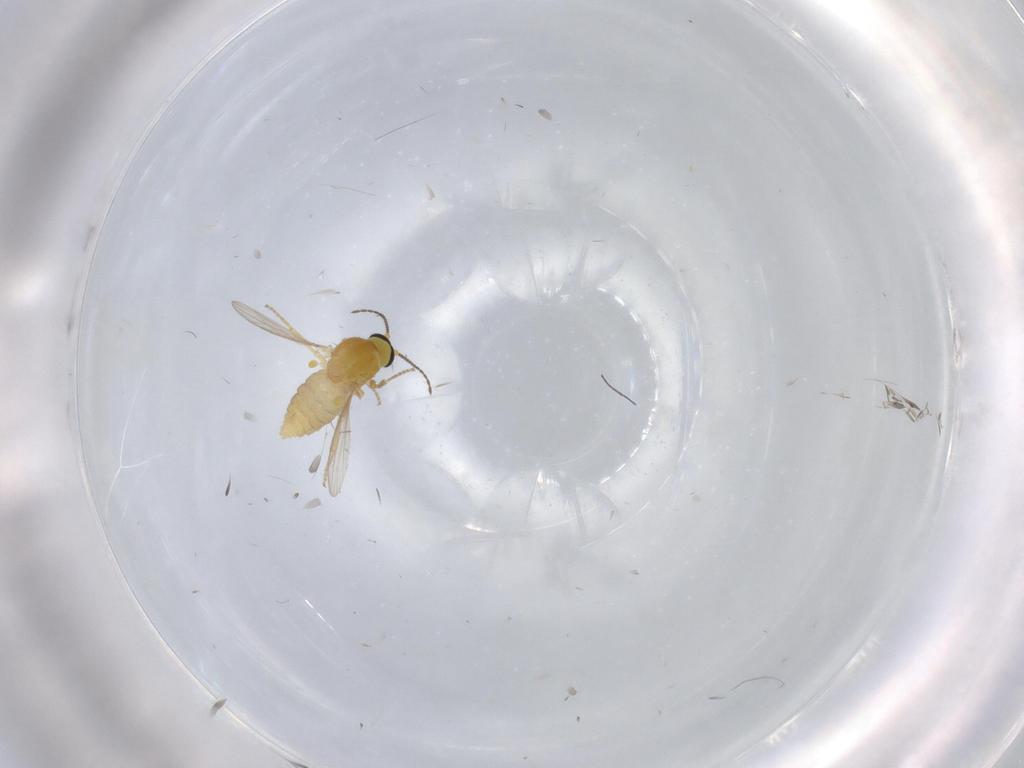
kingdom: Animalia
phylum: Arthropoda
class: Insecta
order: Diptera
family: Ceratopogonidae
